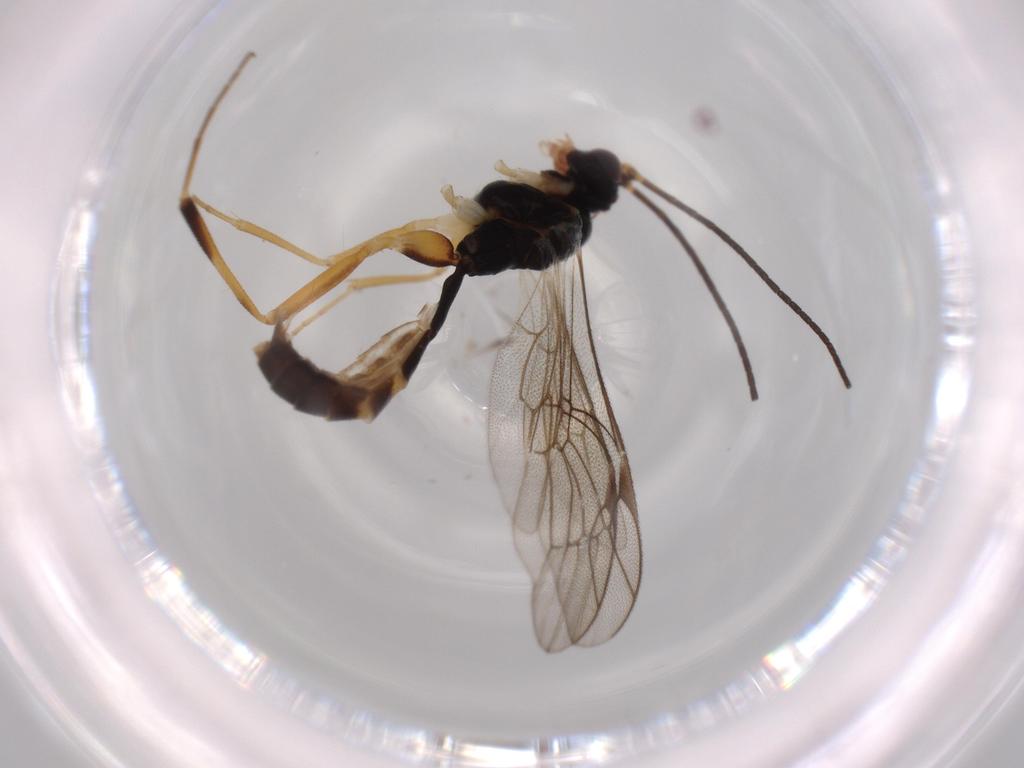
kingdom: Animalia
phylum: Arthropoda
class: Insecta
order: Hymenoptera
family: Ichneumonidae
